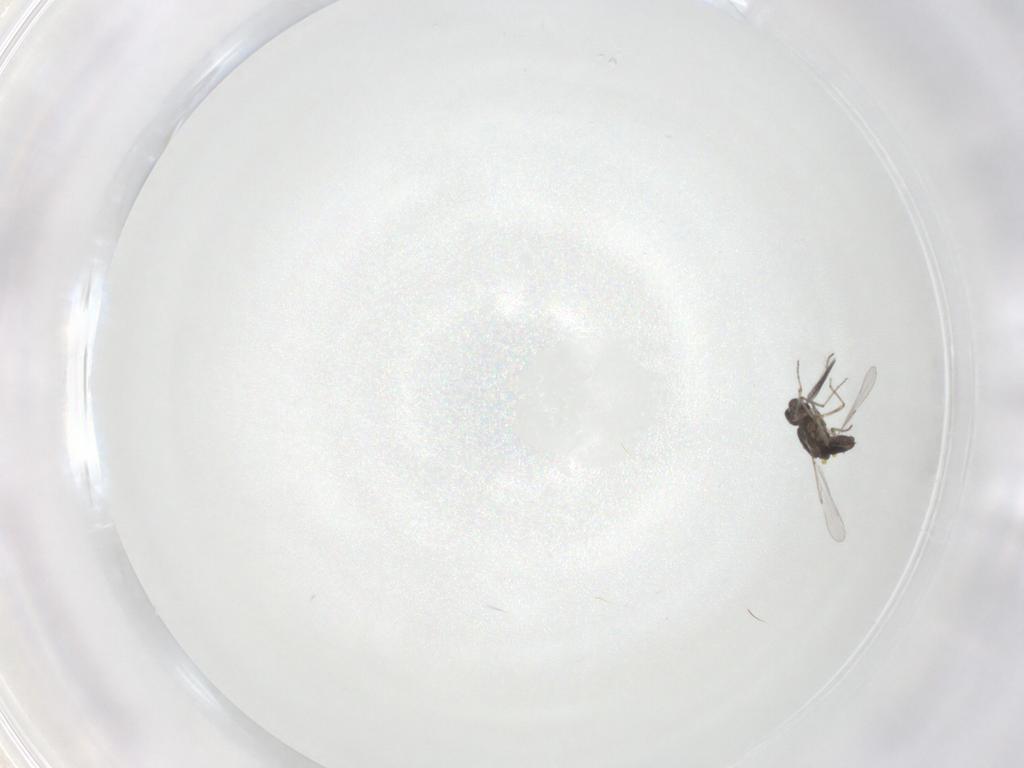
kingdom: Animalia
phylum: Arthropoda
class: Insecta
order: Diptera
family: Ceratopogonidae
